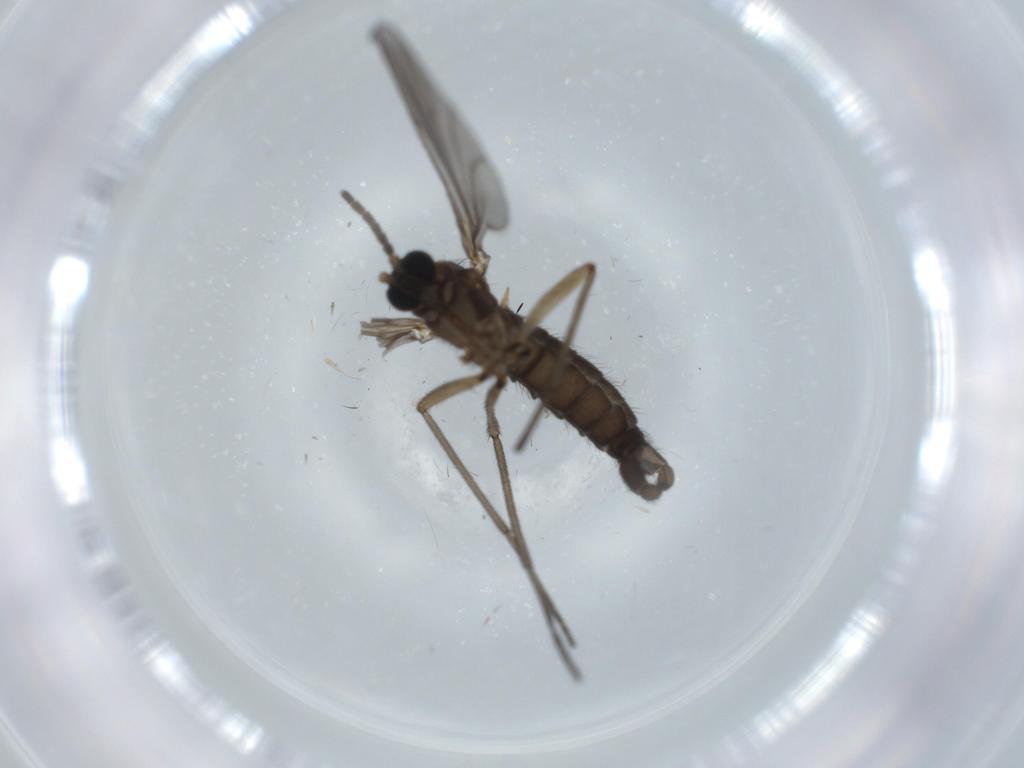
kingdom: Animalia
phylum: Arthropoda
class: Insecta
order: Diptera
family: Sciaridae
